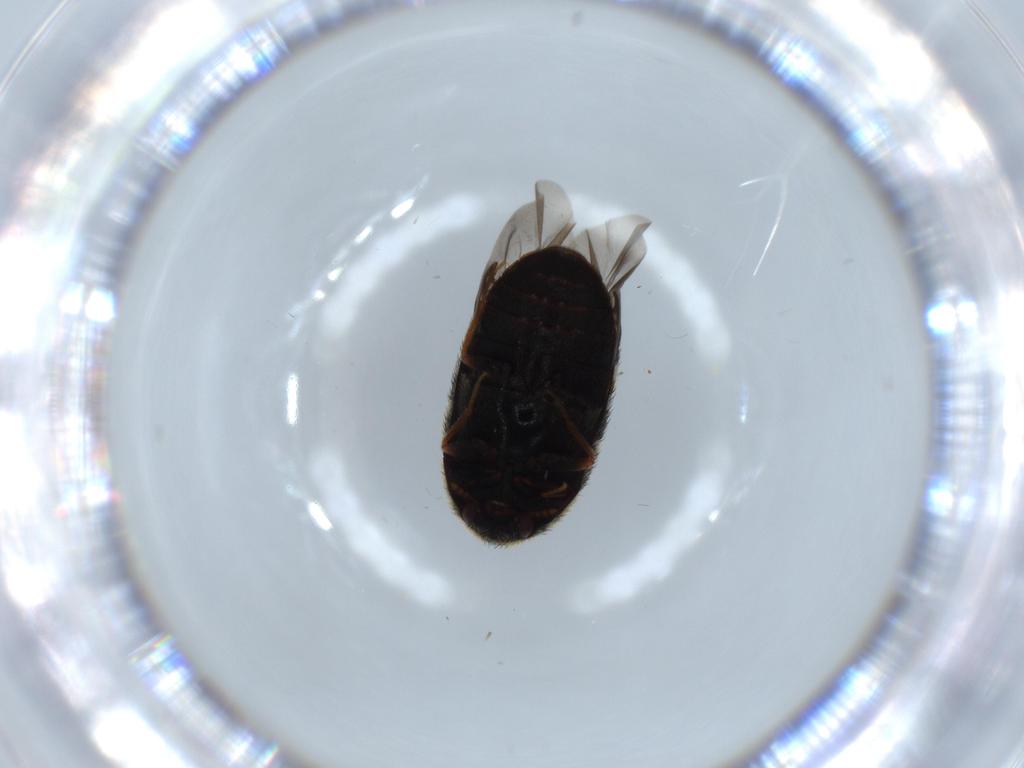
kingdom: Animalia
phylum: Arthropoda
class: Insecta
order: Coleoptera
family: Dermestidae
